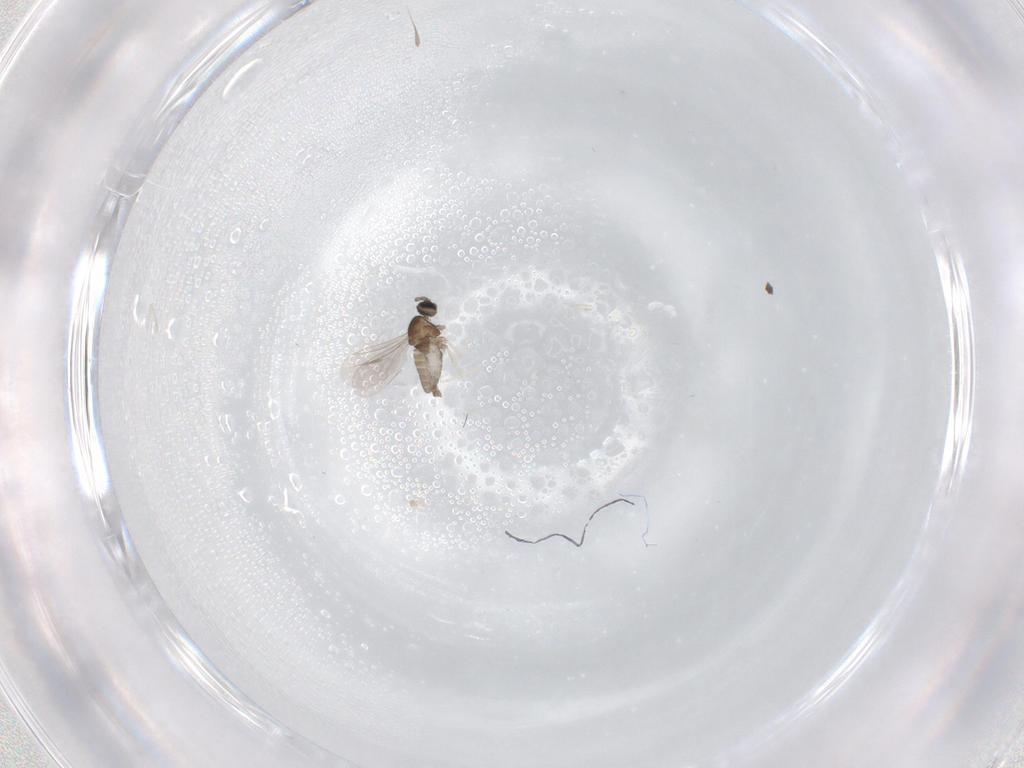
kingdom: Animalia
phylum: Arthropoda
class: Insecta
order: Diptera
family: Cecidomyiidae
